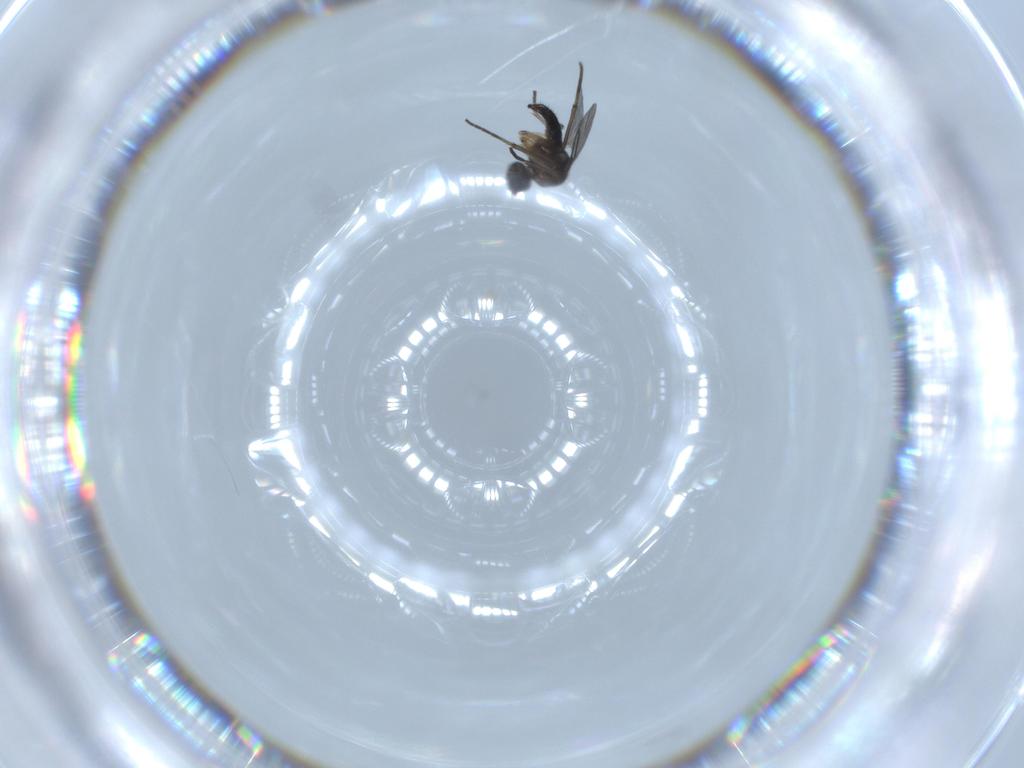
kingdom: Animalia
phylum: Arthropoda
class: Insecta
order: Diptera
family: Sciaridae
